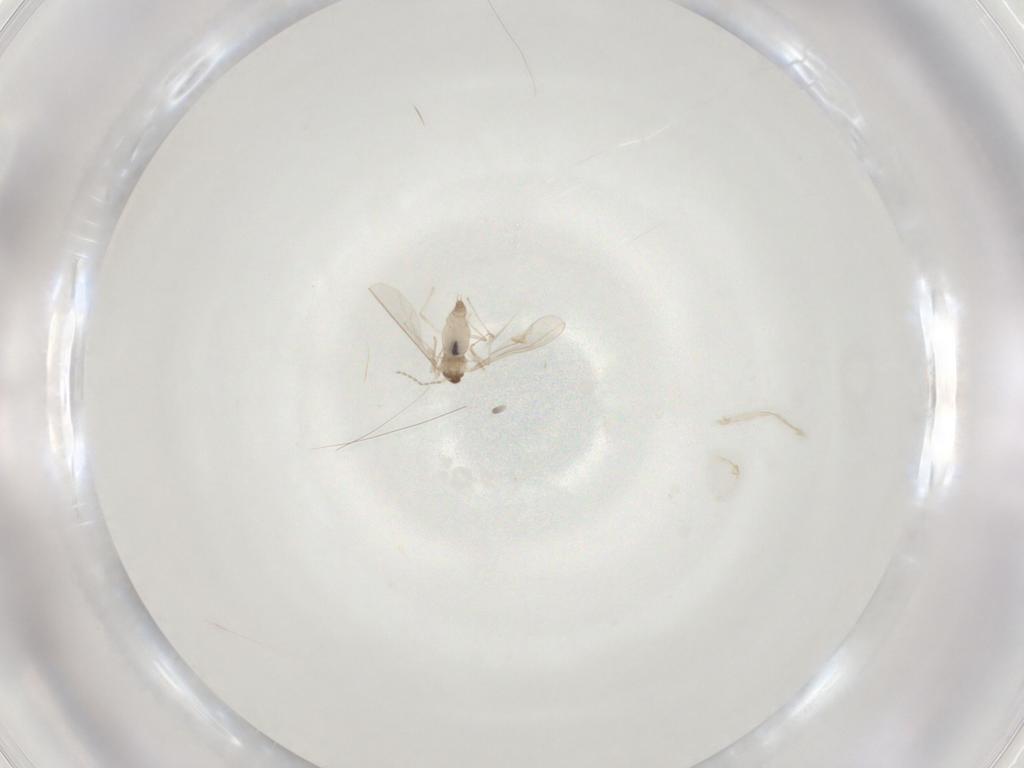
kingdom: Animalia
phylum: Arthropoda
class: Insecta
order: Diptera
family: Cecidomyiidae
